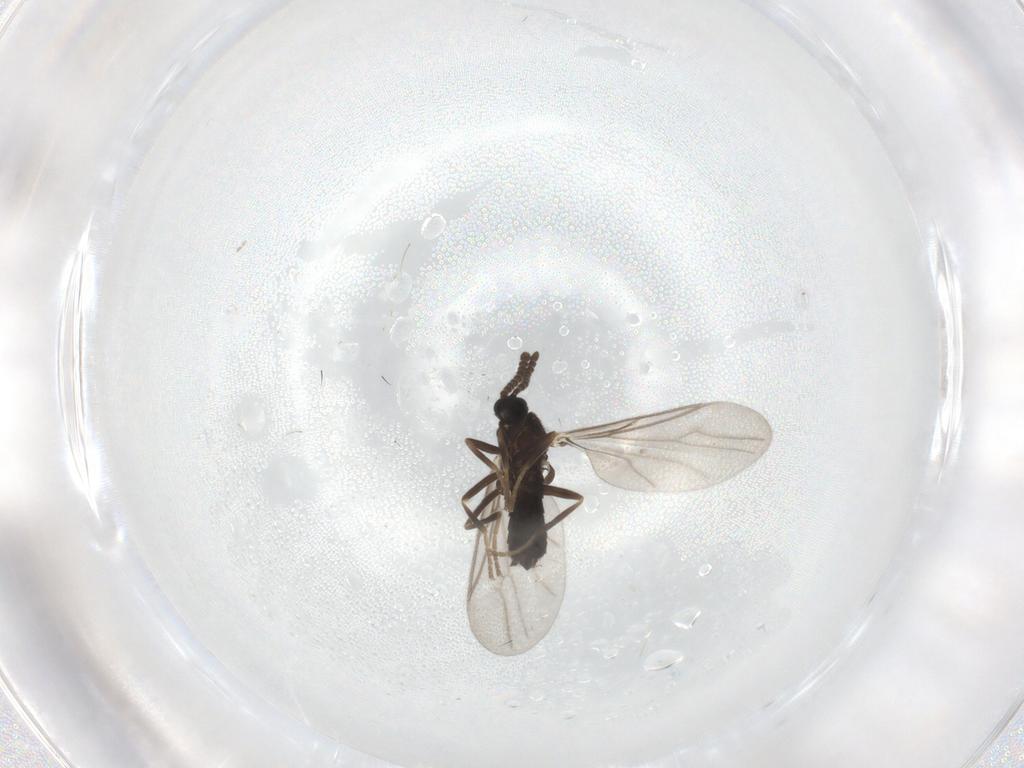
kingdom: Animalia
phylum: Arthropoda
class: Insecta
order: Diptera
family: Scatopsidae
